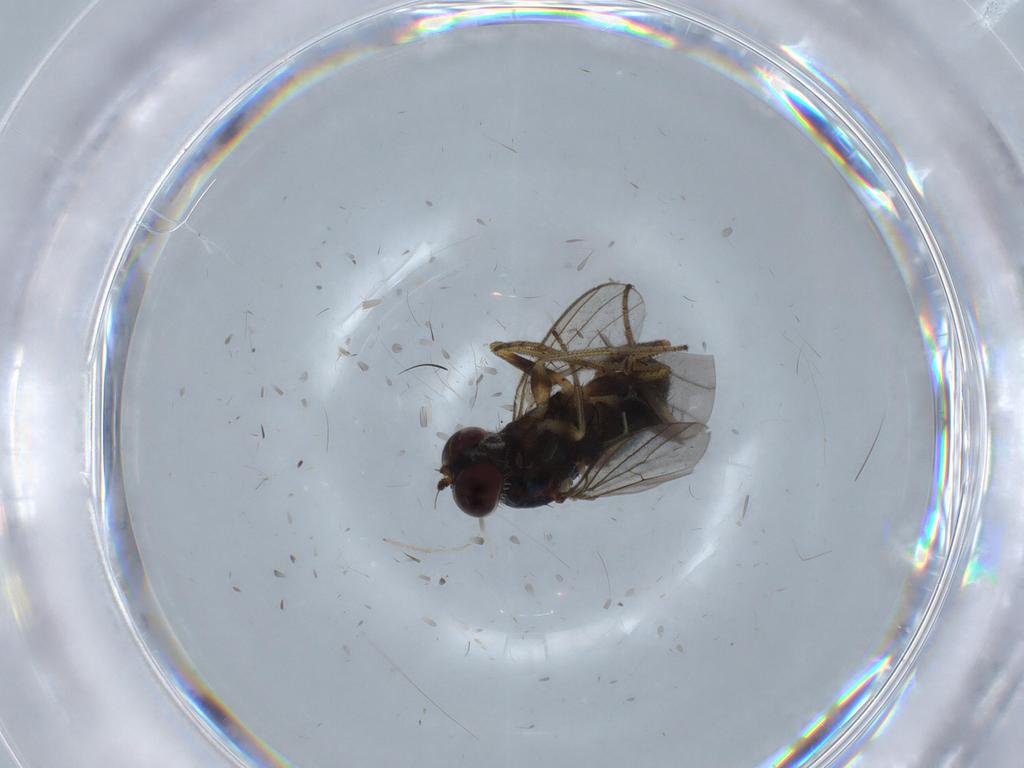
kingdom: Animalia
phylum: Arthropoda
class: Insecta
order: Diptera
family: Sciaridae
